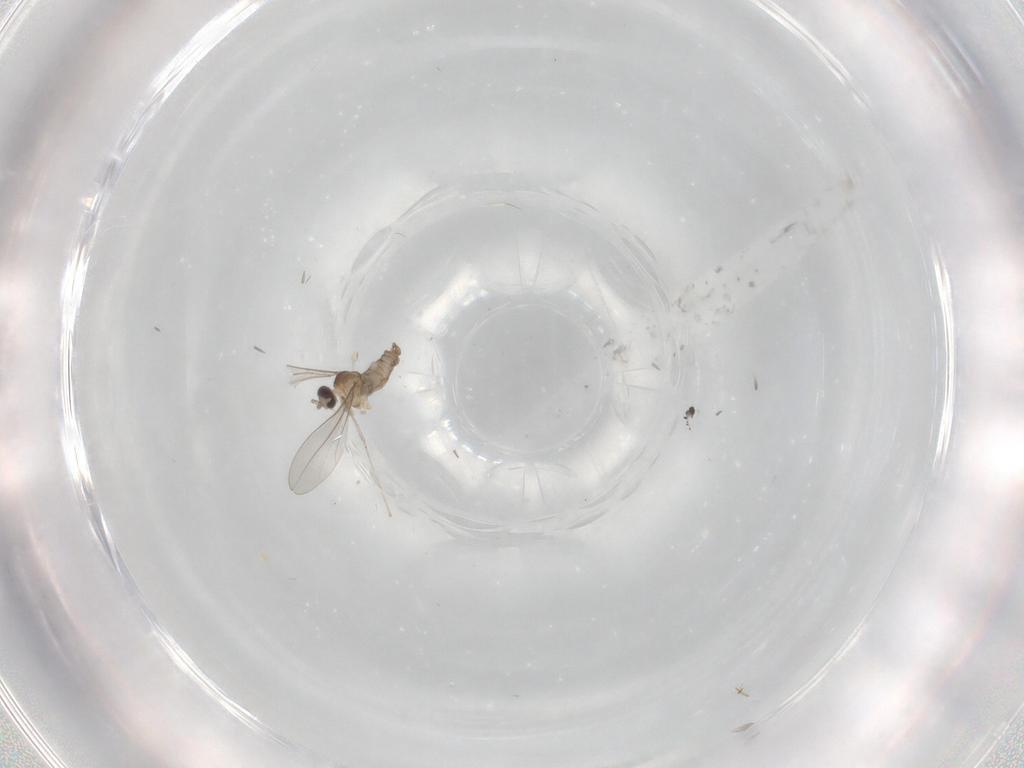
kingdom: Animalia
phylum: Arthropoda
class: Insecta
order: Diptera
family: Limoniidae
